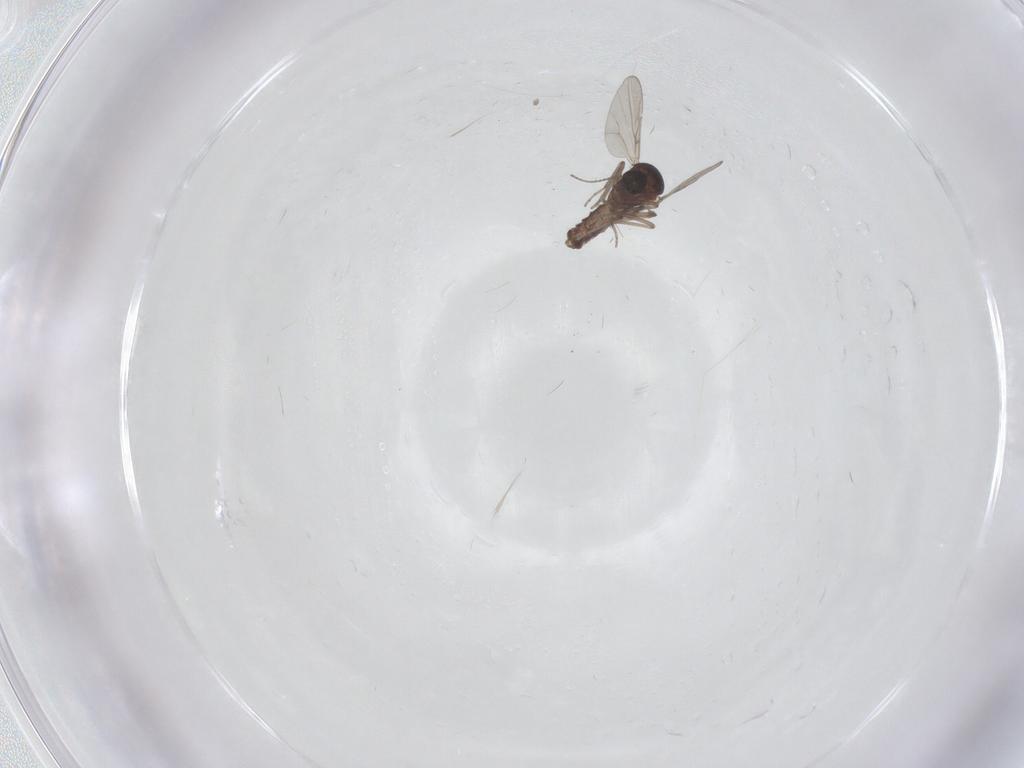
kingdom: Animalia
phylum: Arthropoda
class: Insecta
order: Diptera
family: Ceratopogonidae
